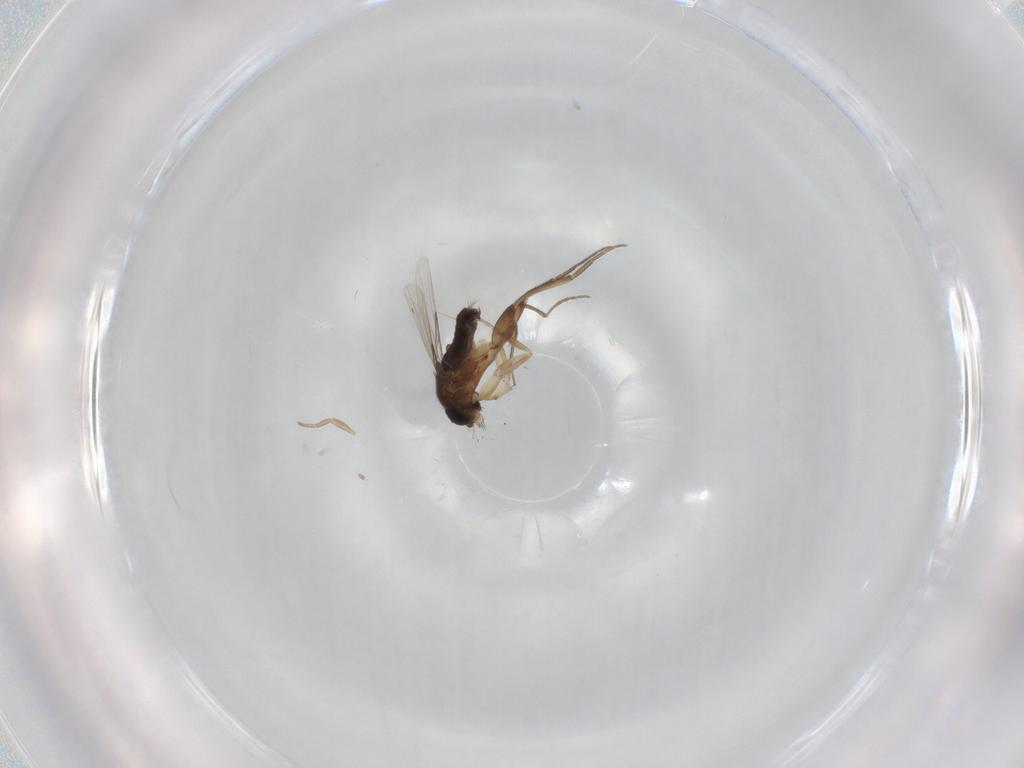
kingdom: Animalia
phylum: Arthropoda
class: Insecta
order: Diptera
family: Phoridae
